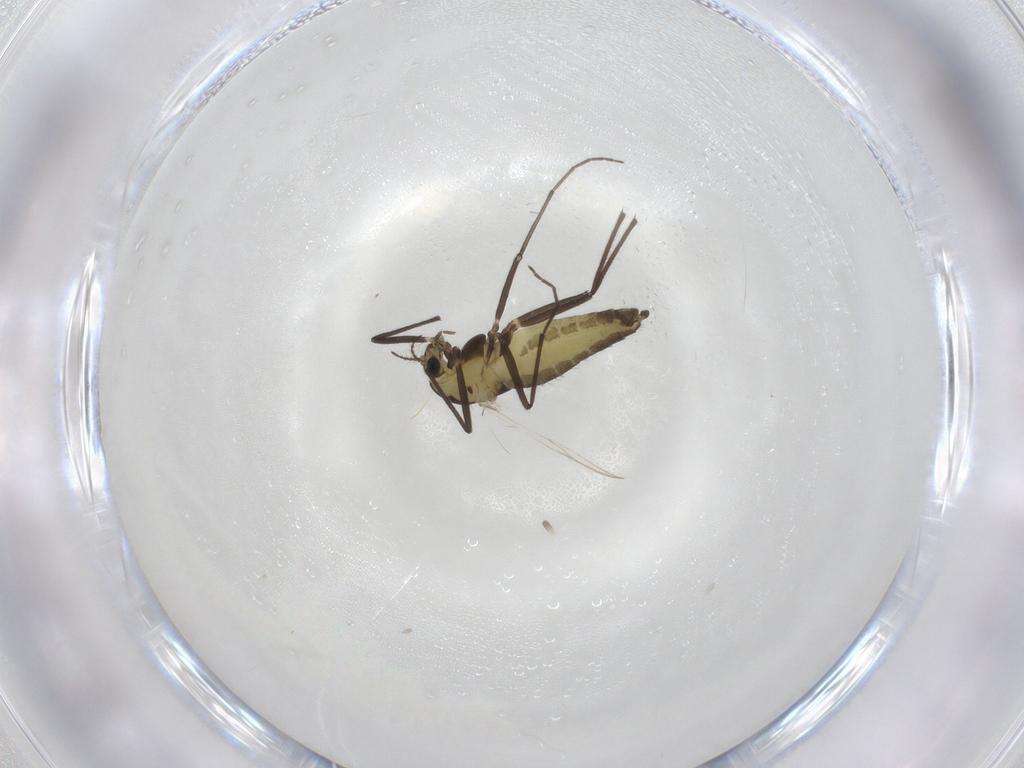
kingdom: Animalia
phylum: Arthropoda
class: Insecta
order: Diptera
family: Chironomidae
